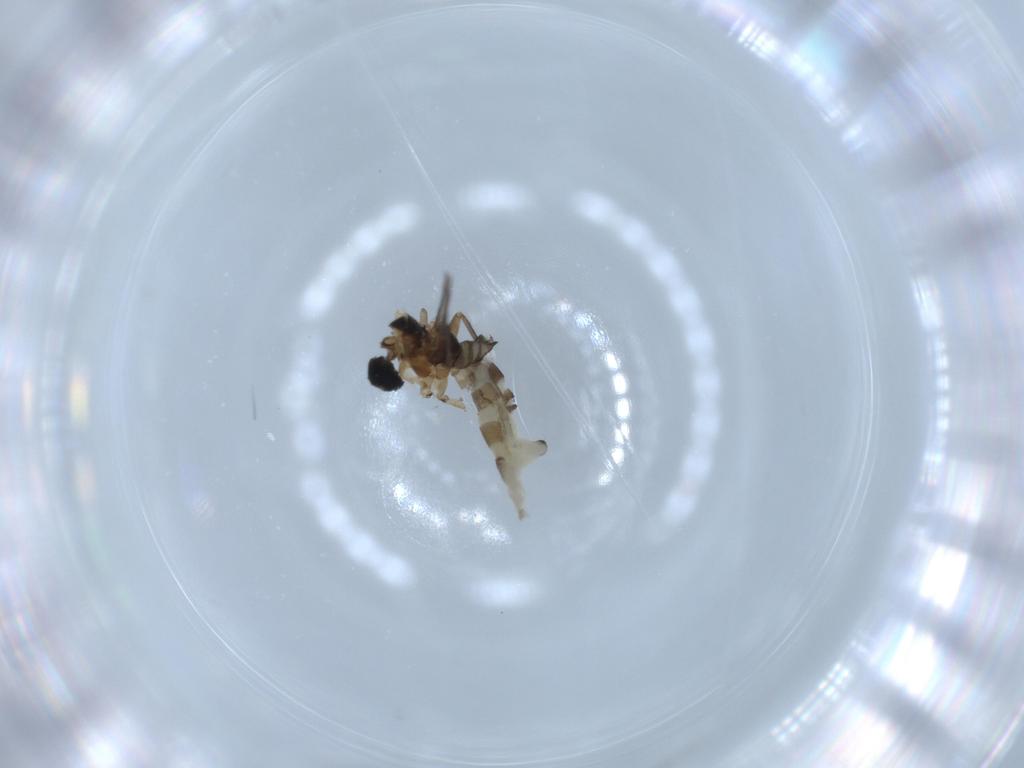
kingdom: Animalia
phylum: Arthropoda
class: Insecta
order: Diptera
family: Sciaridae
